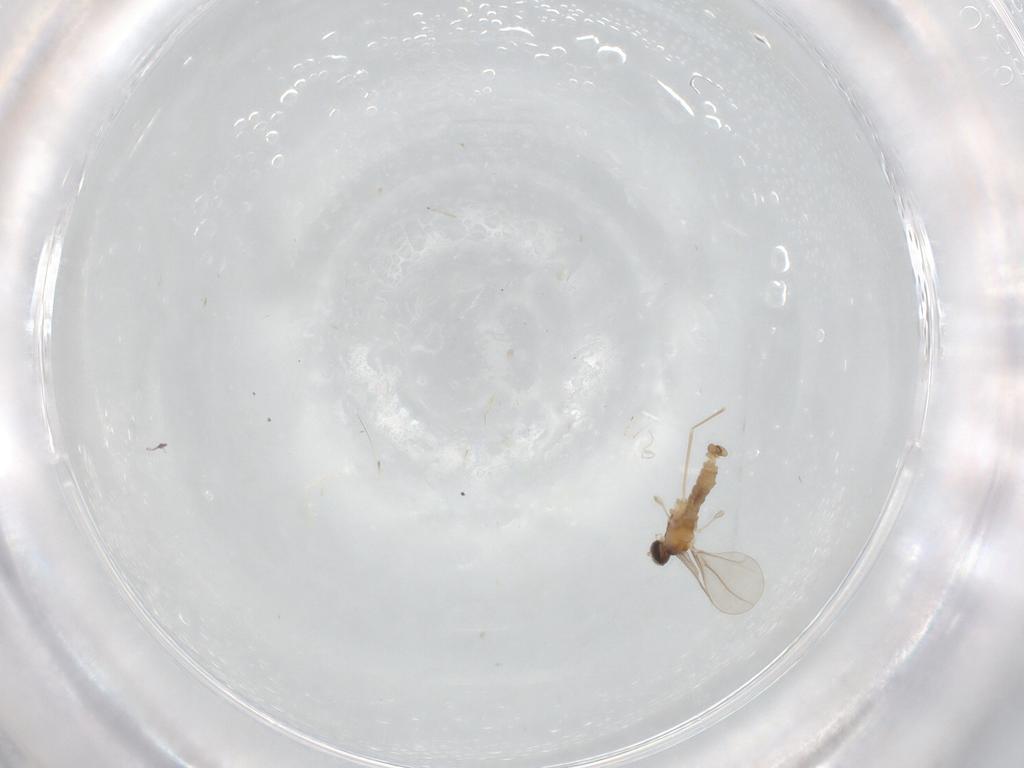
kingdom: Animalia
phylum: Arthropoda
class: Insecta
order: Diptera
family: Cecidomyiidae
